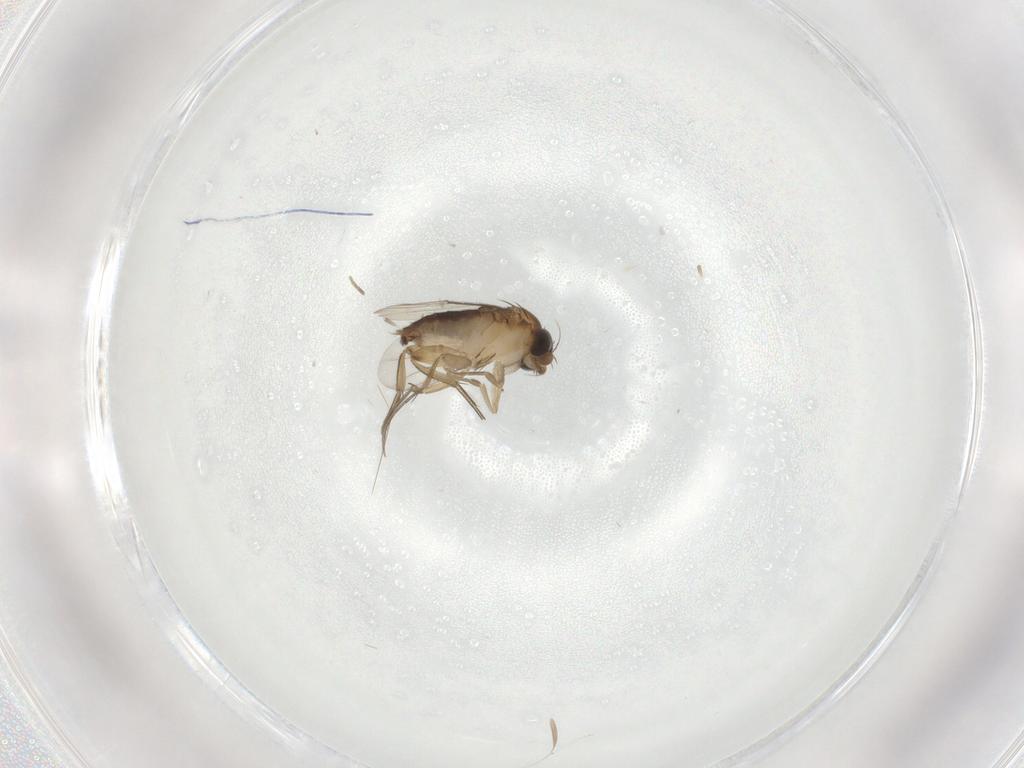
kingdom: Animalia
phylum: Arthropoda
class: Insecta
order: Diptera
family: Phoridae
